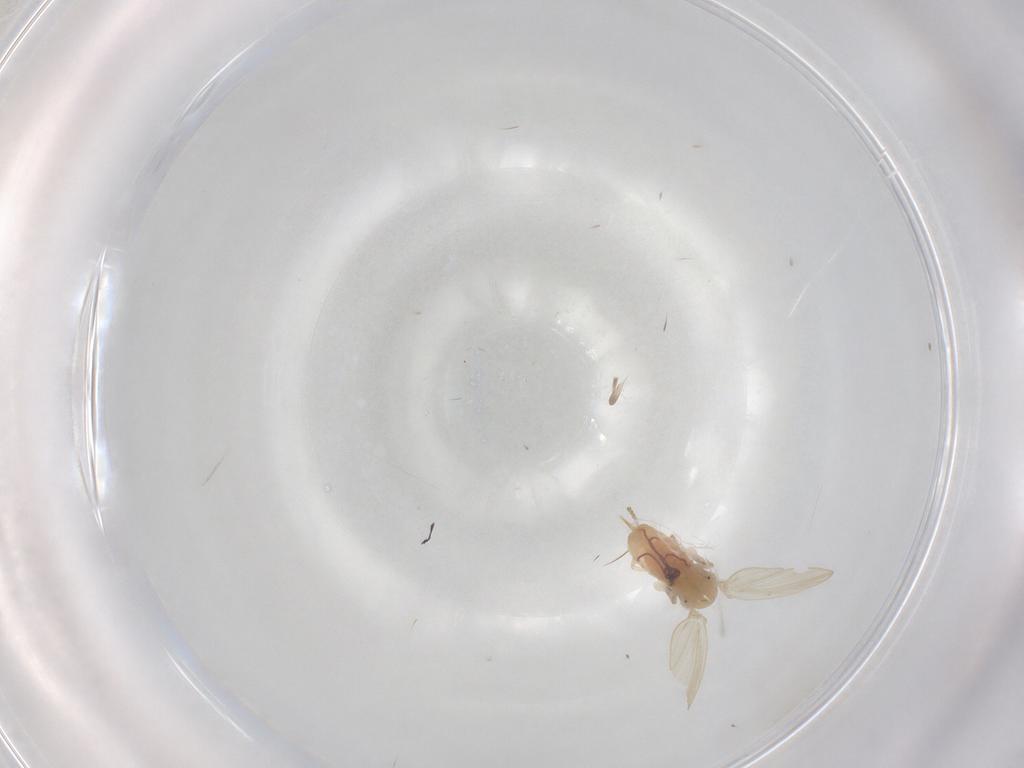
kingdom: Animalia
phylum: Arthropoda
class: Insecta
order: Diptera
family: Psychodidae
